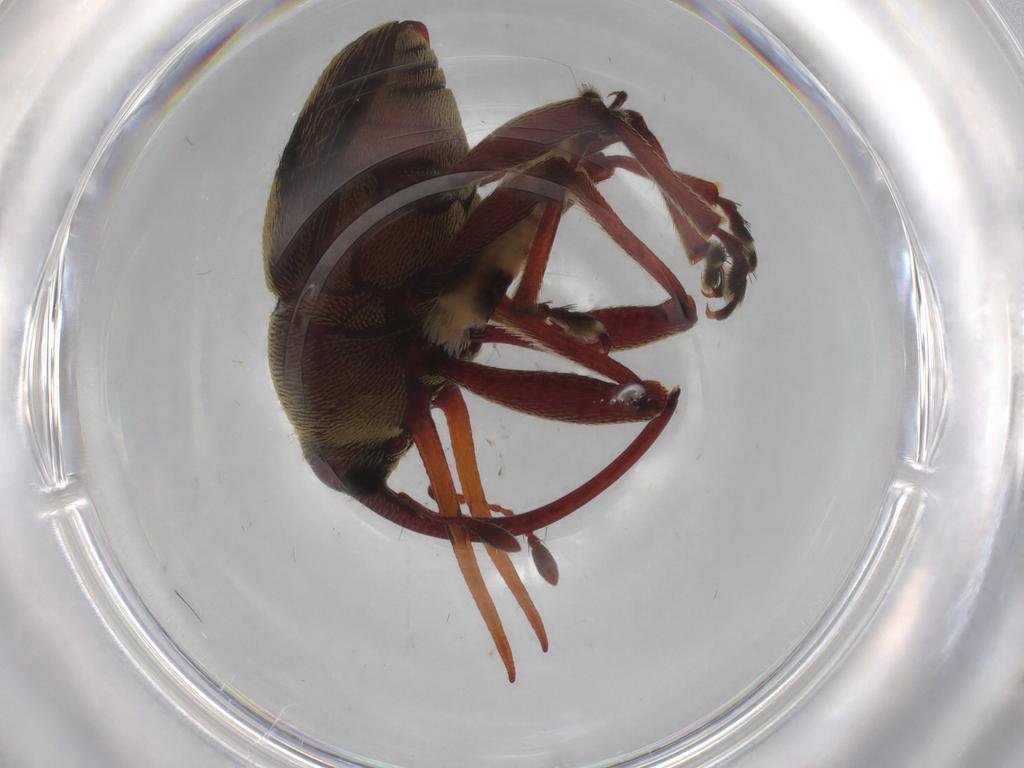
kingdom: Animalia
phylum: Arthropoda
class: Insecta
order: Coleoptera
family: Curculionidae
